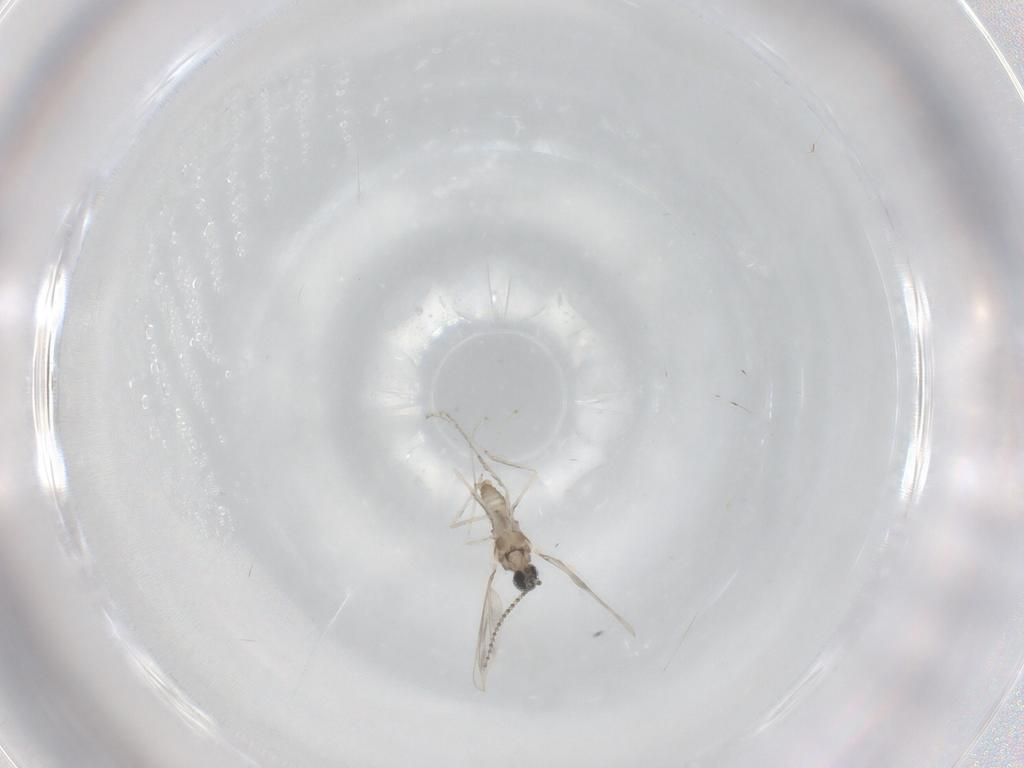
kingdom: Animalia
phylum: Arthropoda
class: Insecta
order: Diptera
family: Cecidomyiidae
